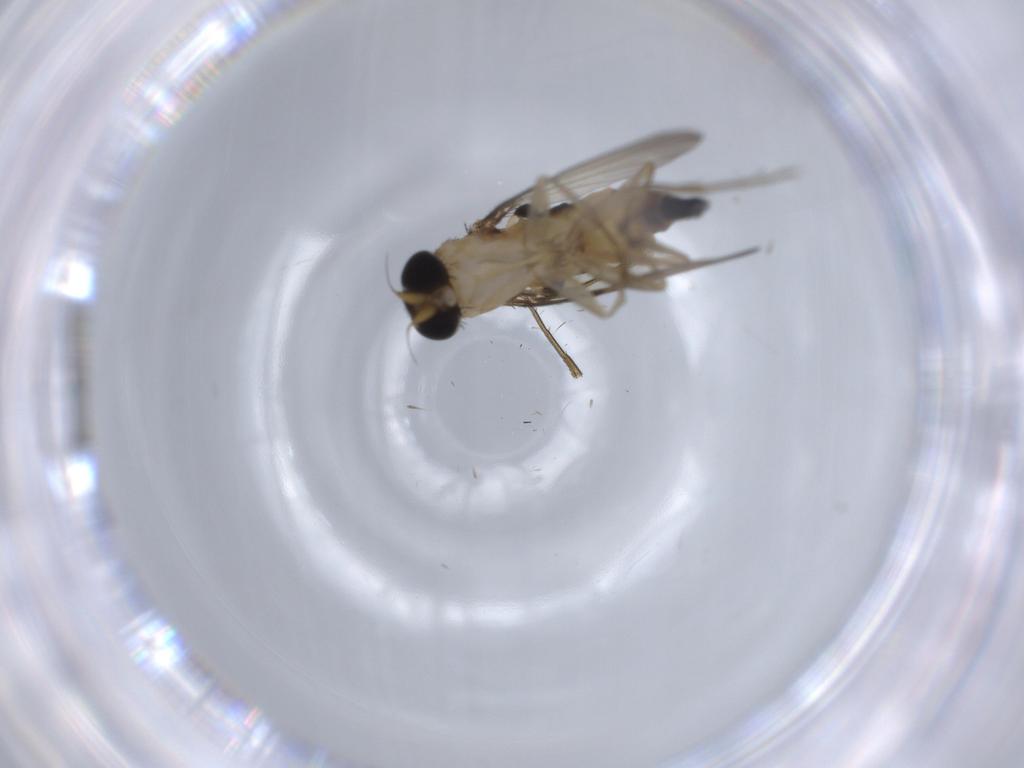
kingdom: Animalia
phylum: Arthropoda
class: Insecta
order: Diptera
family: Phoridae
